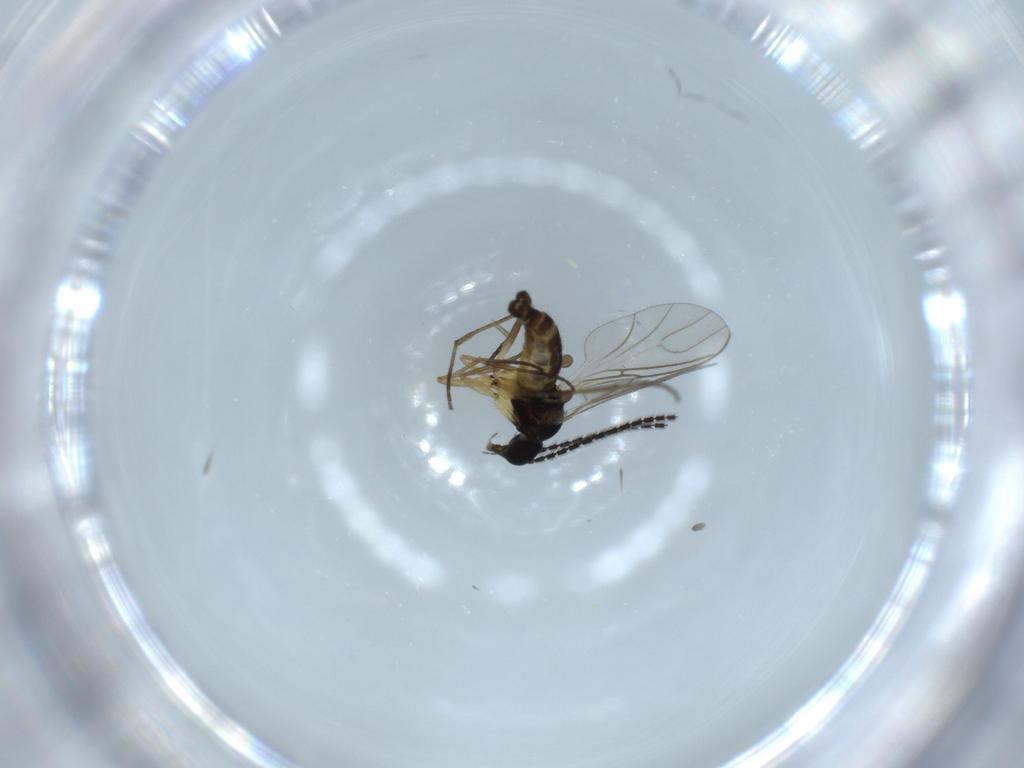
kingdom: Animalia
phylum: Arthropoda
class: Insecta
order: Diptera
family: Sciaridae
